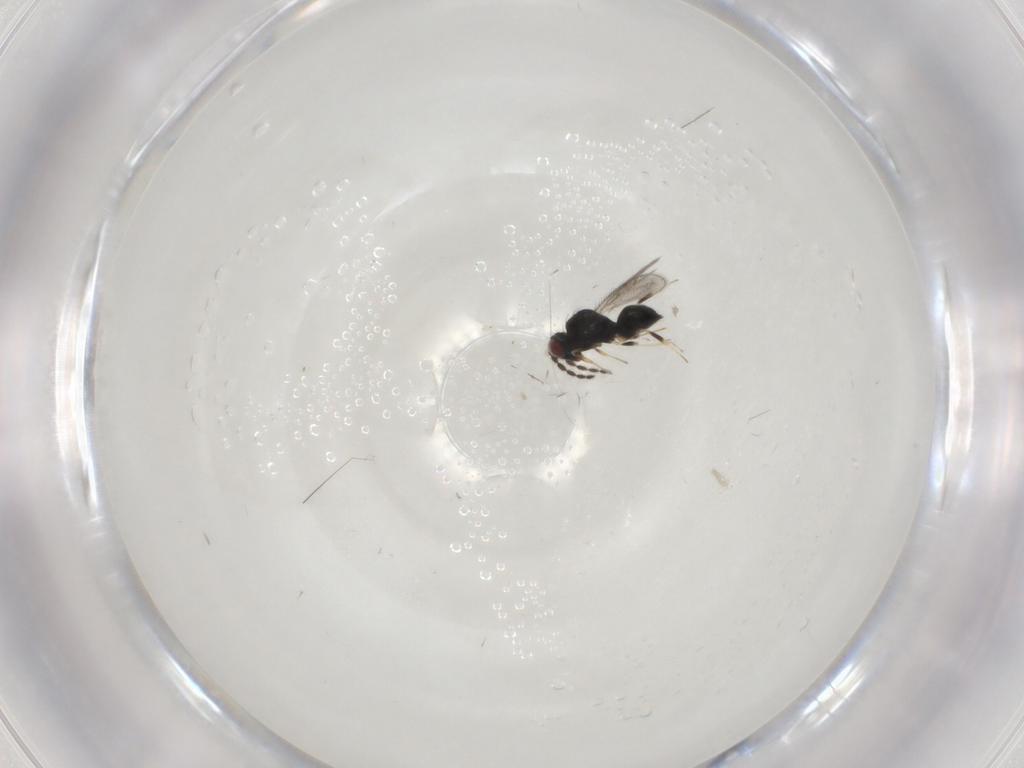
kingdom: Animalia
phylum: Arthropoda
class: Insecta
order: Hymenoptera
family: Eulophidae
